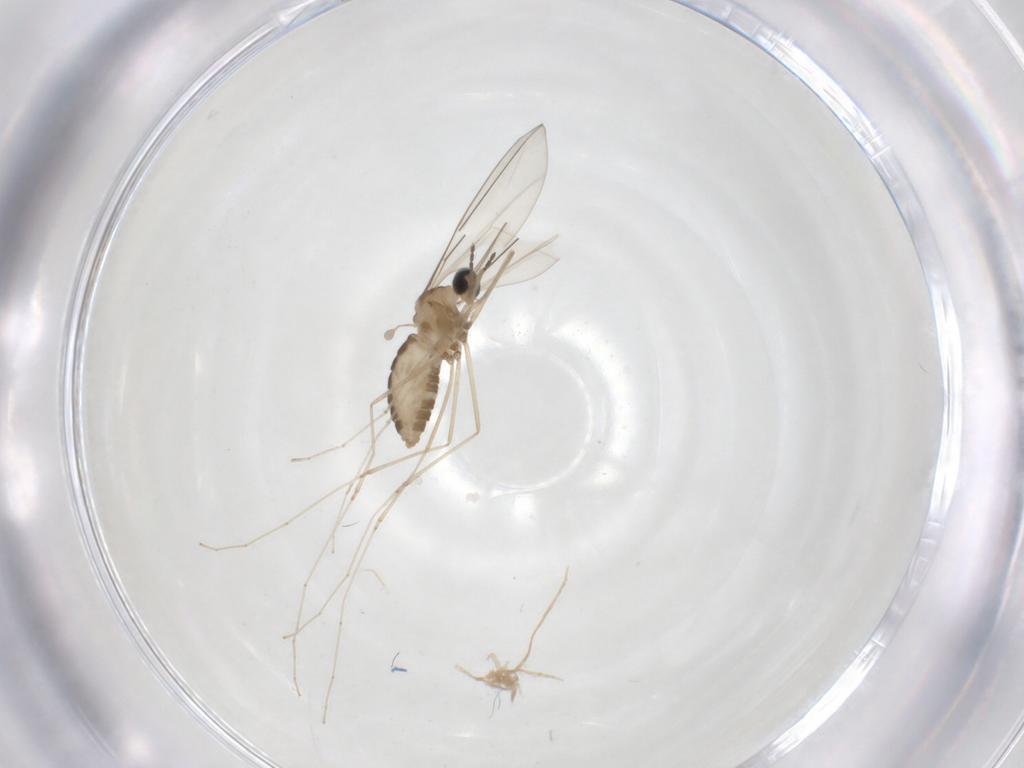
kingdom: Animalia
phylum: Arthropoda
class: Insecta
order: Diptera
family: Cecidomyiidae
